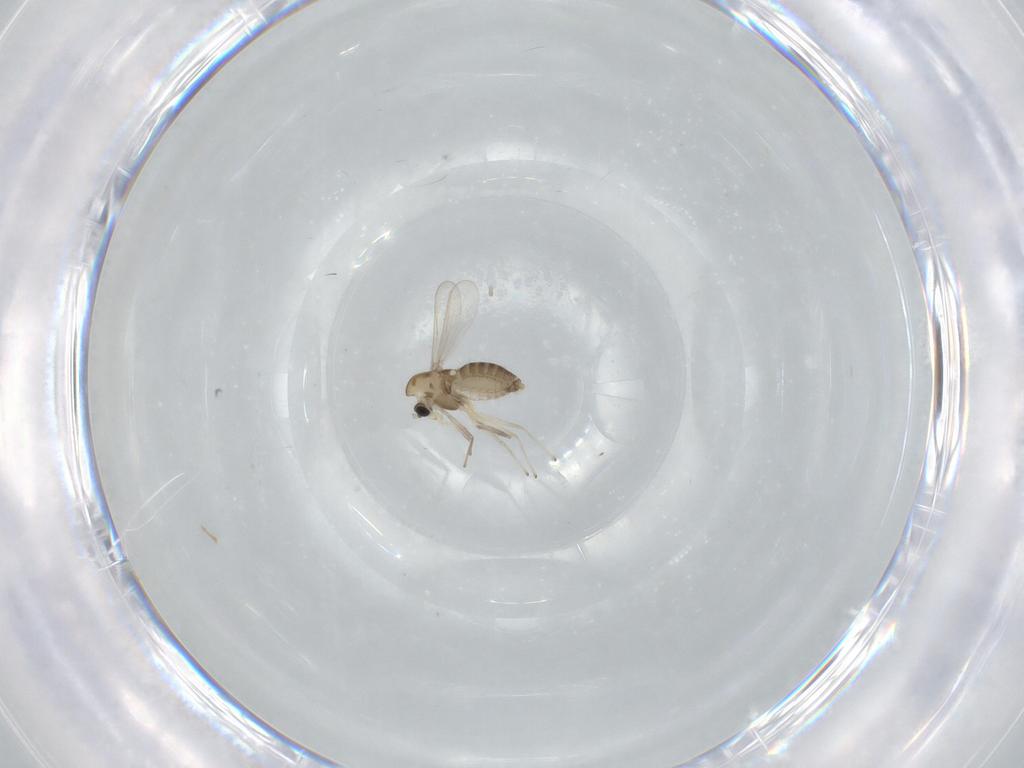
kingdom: Animalia
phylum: Arthropoda
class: Insecta
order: Diptera
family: Chironomidae
